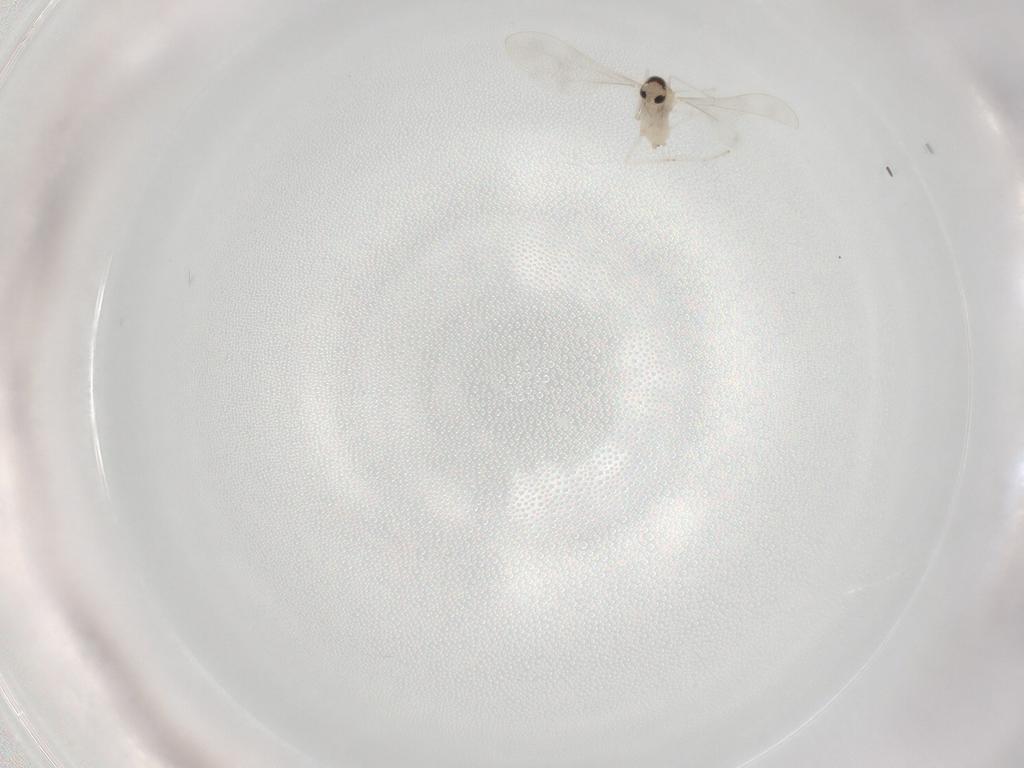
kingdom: Animalia
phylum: Arthropoda
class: Insecta
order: Diptera
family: Cecidomyiidae
